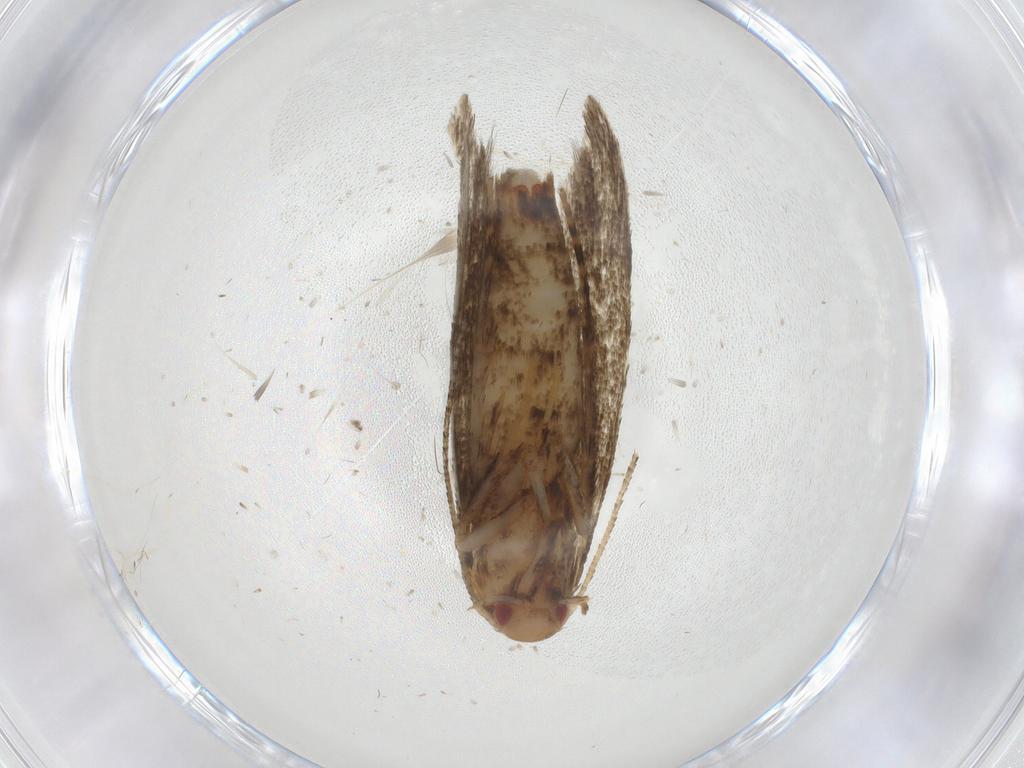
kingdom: Animalia
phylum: Arthropoda
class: Insecta
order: Lepidoptera
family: Erebidae
